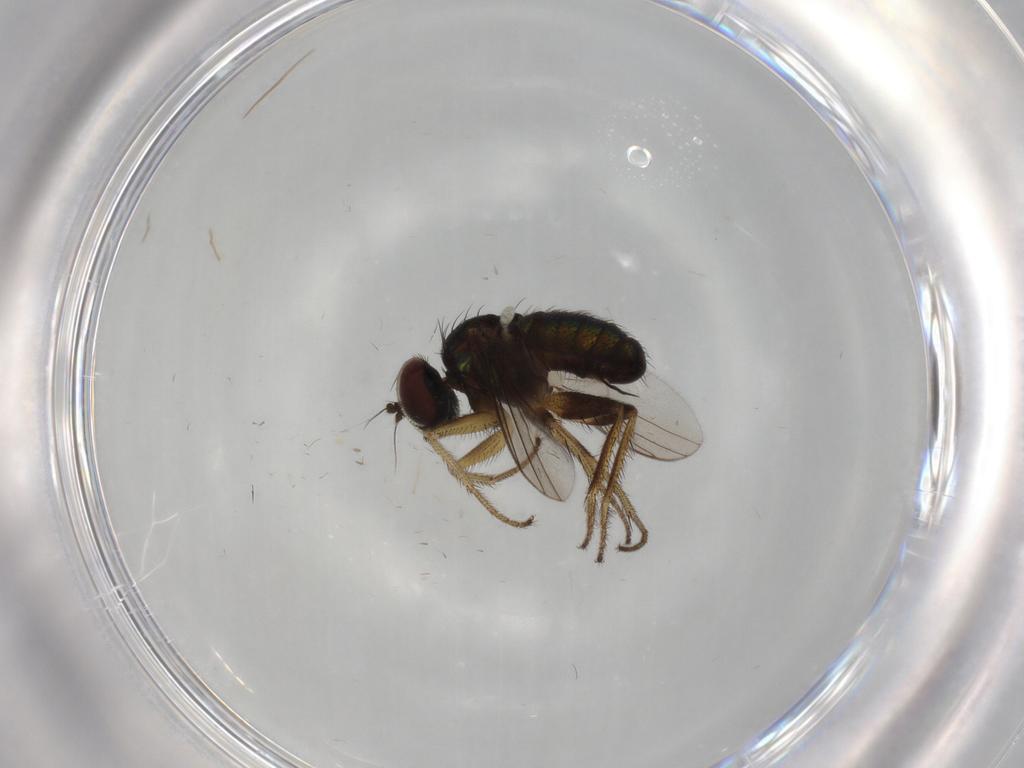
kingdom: Animalia
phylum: Arthropoda
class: Insecta
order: Diptera
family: Dolichopodidae
